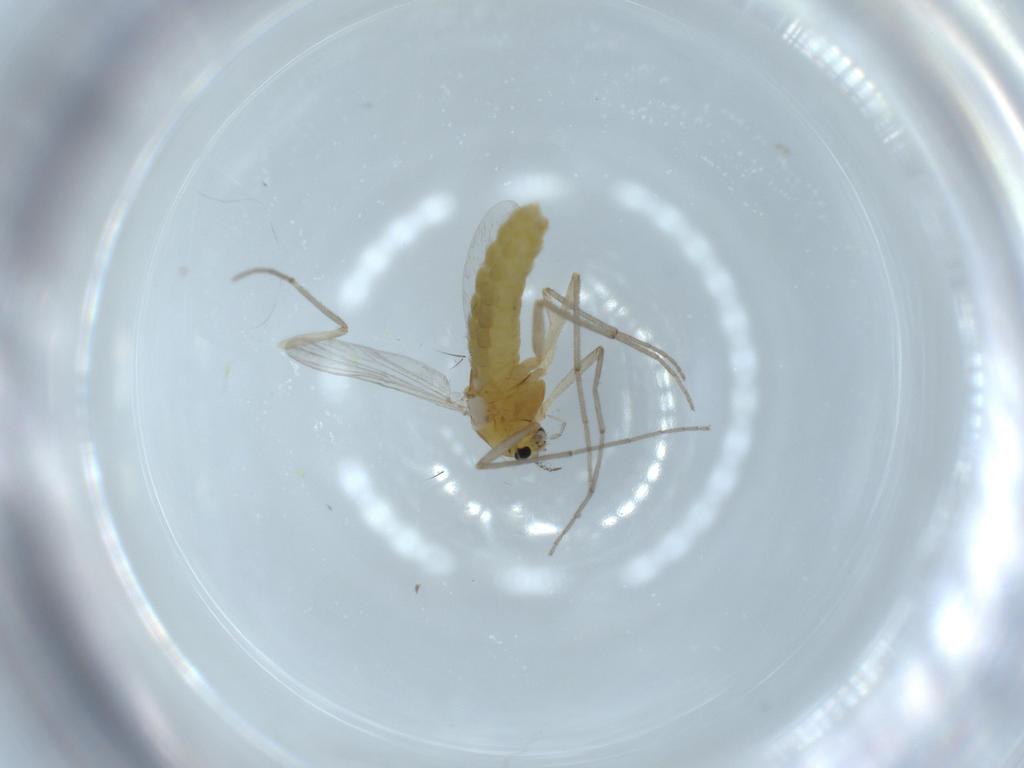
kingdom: Animalia
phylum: Arthropoda
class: Insecta
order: Diptera
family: Chironomidae
